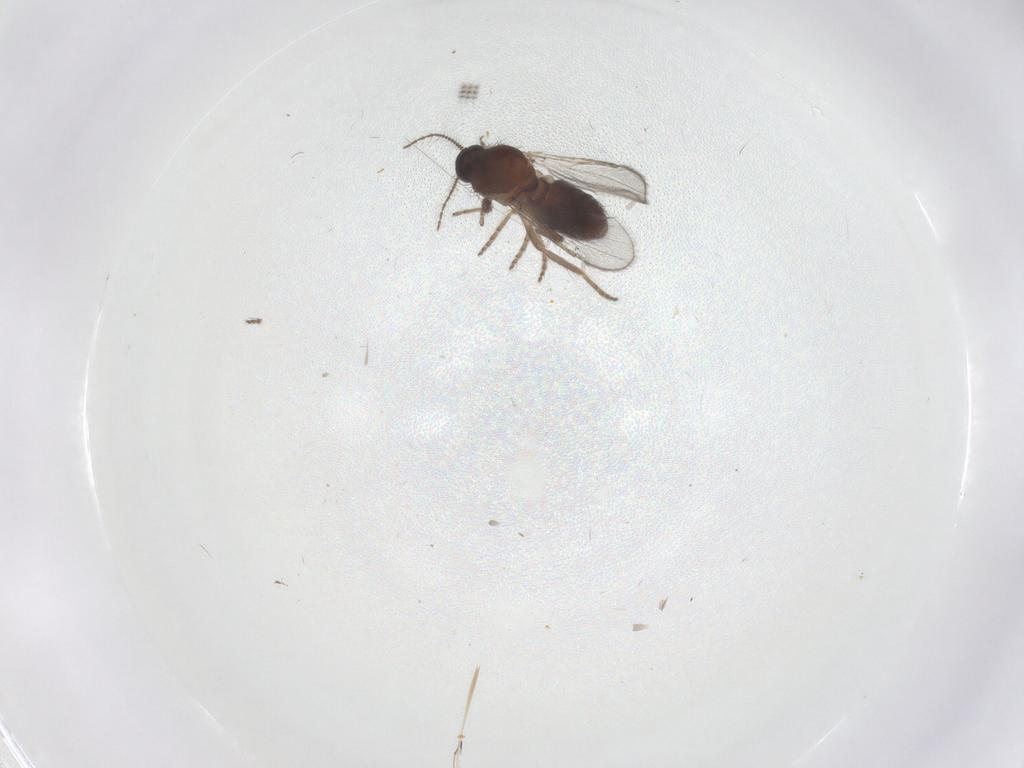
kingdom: Animalia
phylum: Arthropoda
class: Insecta
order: Diptera
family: Ceratopogonidae
